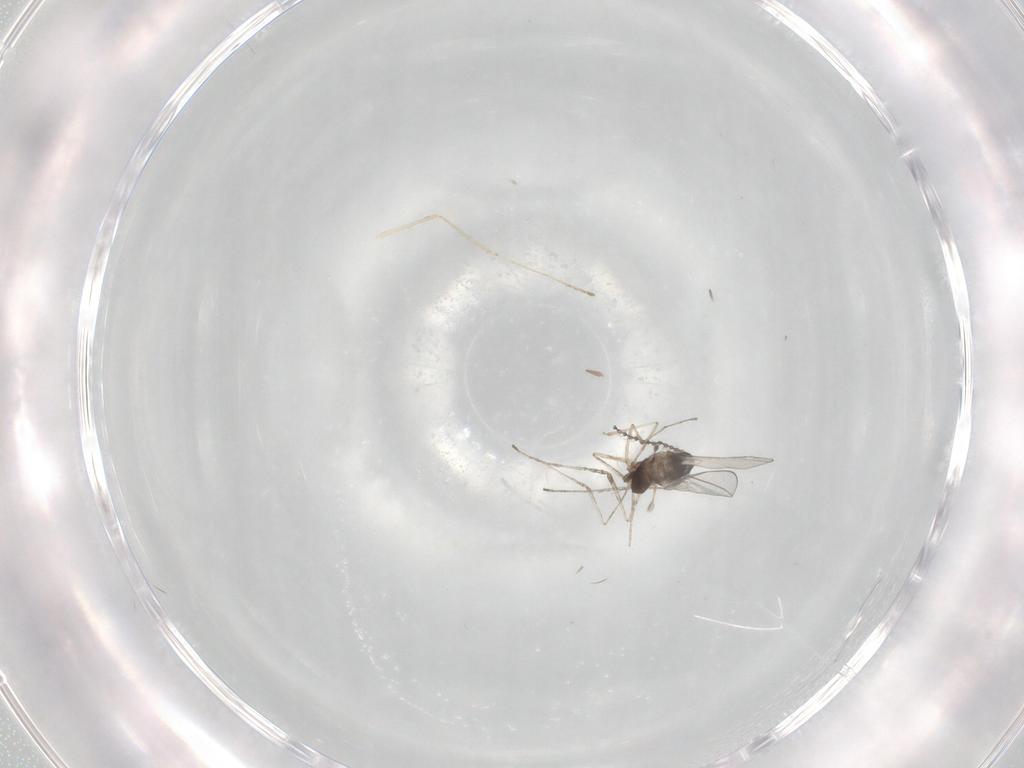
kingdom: Animalia
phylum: Arthropoda
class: Insecta
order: Diptera
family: Cecidomyiidae
